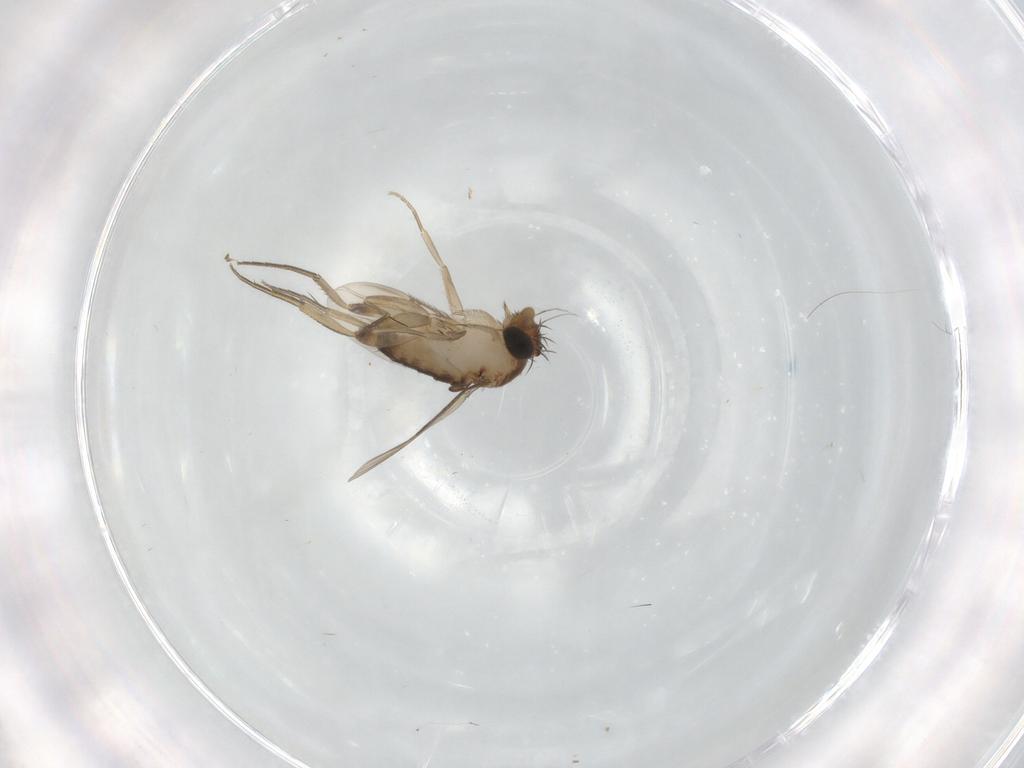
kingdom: Animalia
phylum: Arthropoda
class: Insecta
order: Diptera
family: Phoridae
